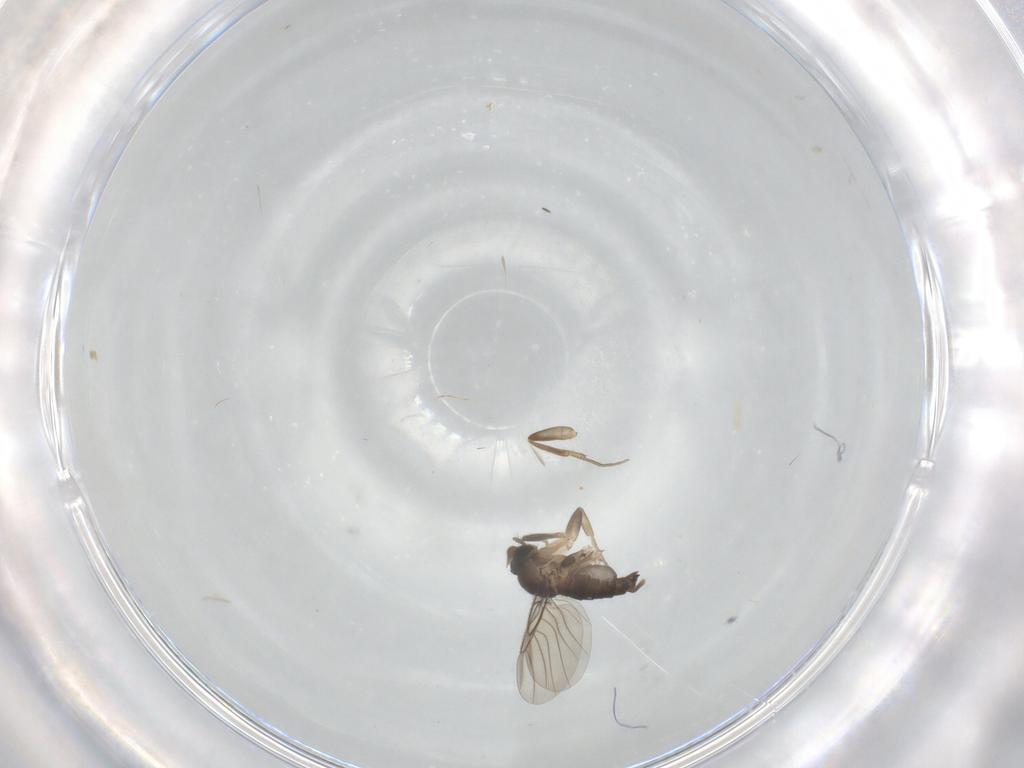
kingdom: Animalia
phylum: Arthropoda
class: Insecta
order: Diptera
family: Phoridae
